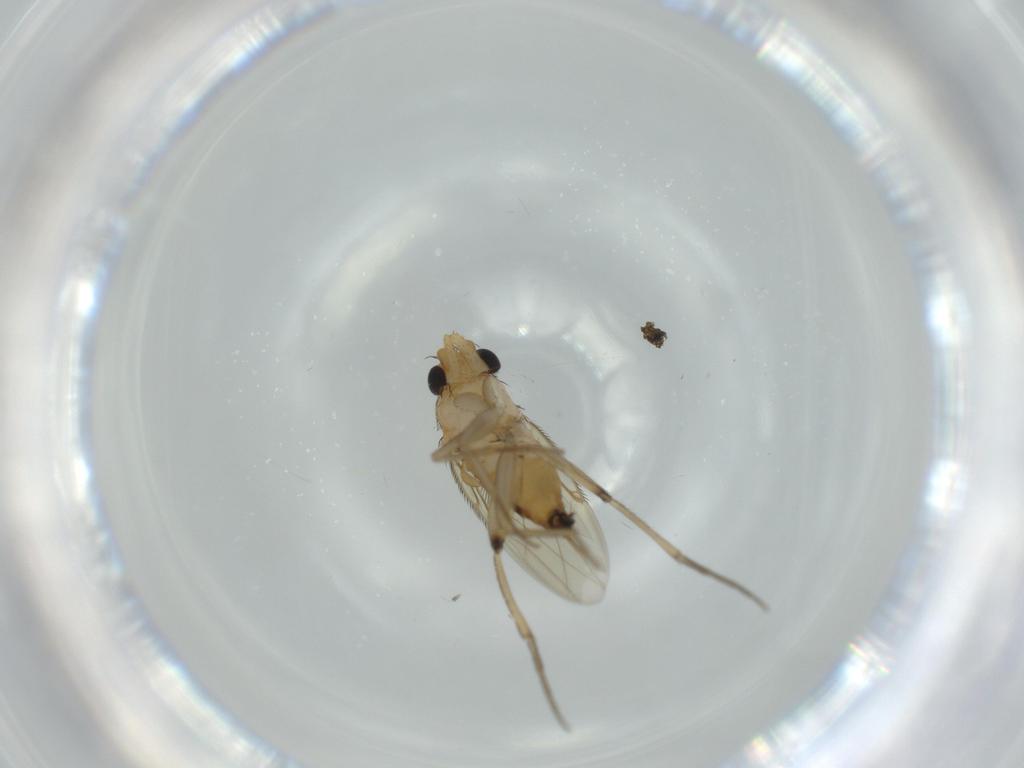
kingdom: Animalia
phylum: Arthropoda
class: Insecta
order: Diptera
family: Phoridae
